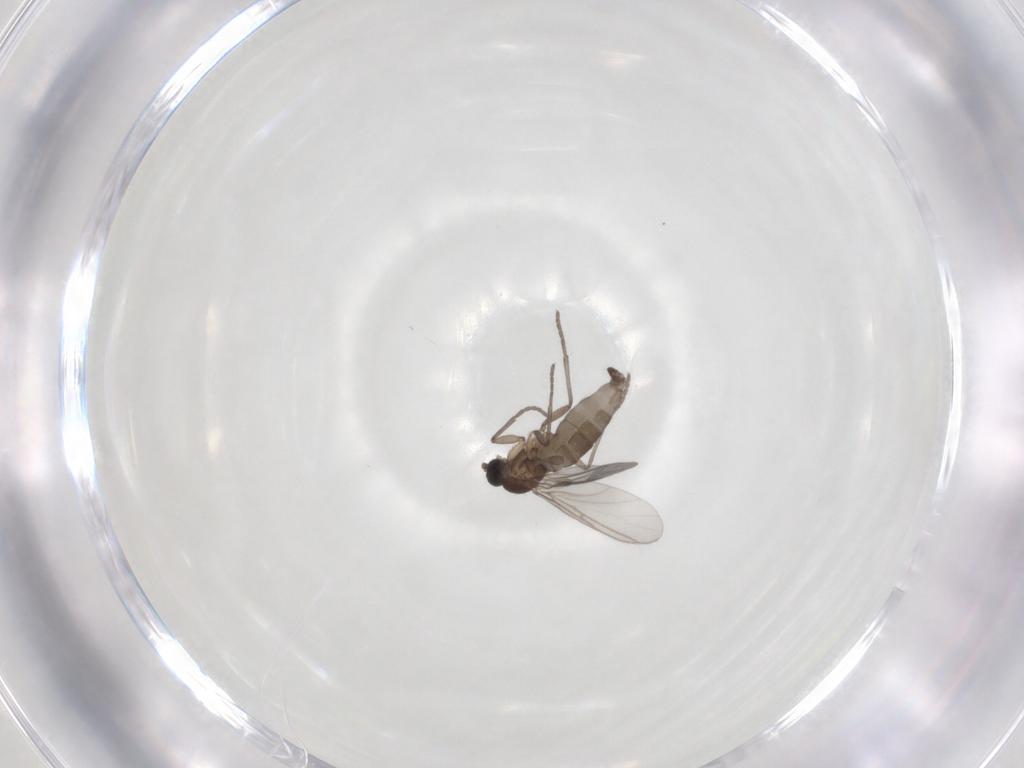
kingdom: Animalia
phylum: Arthropoda
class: Insecta
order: Diptera
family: Sciaridae
